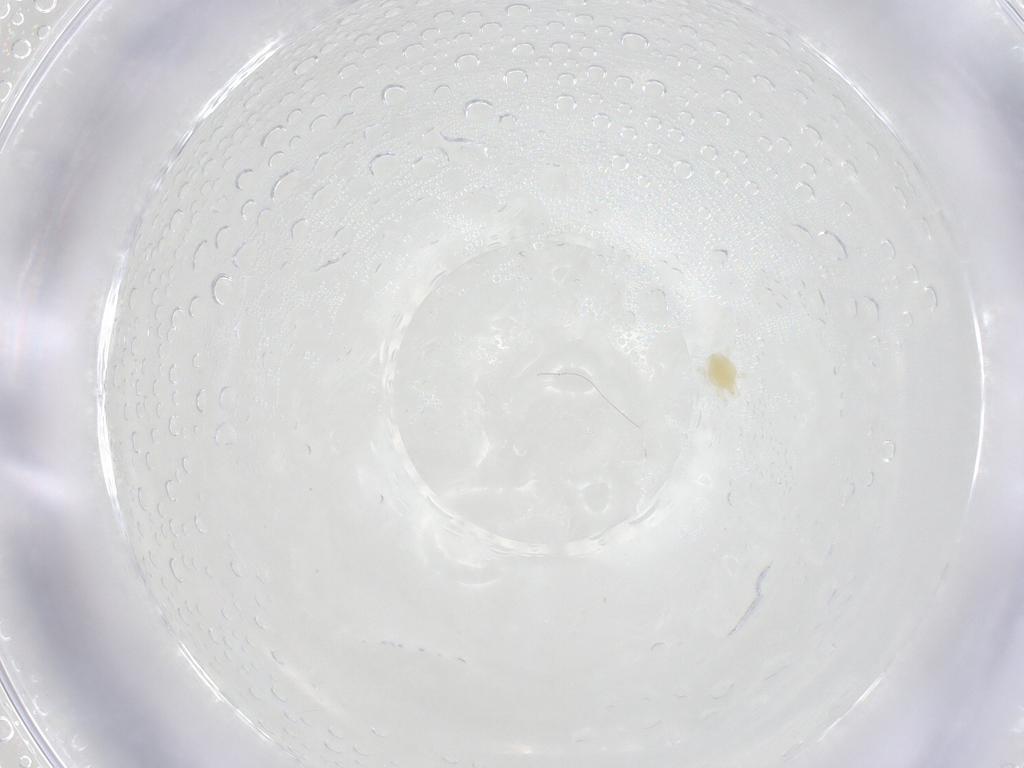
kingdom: Animalia
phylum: Arthropoda
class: Arachnida
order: Trombidiformes
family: Tetranychidae
